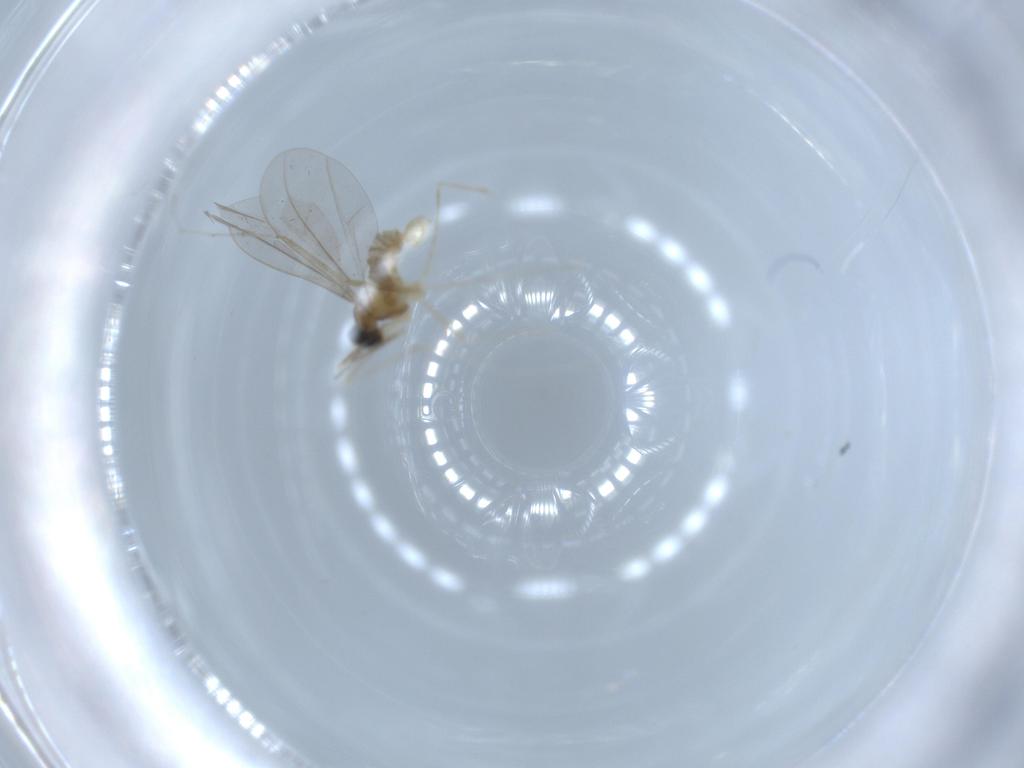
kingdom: Animalia
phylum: Arthropoda
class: Insecta
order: Diptera
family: Cecidomyiidae
